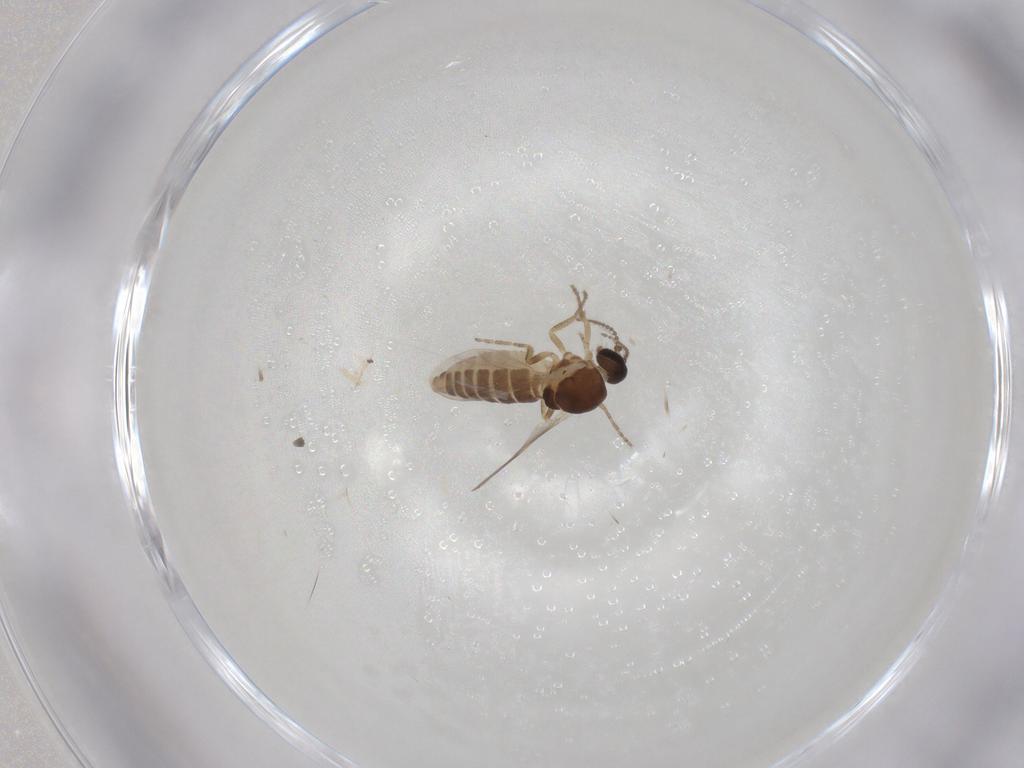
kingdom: Animalia
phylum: Arthropoda
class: Insecta
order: Diptera
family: Ceratopogonidae
